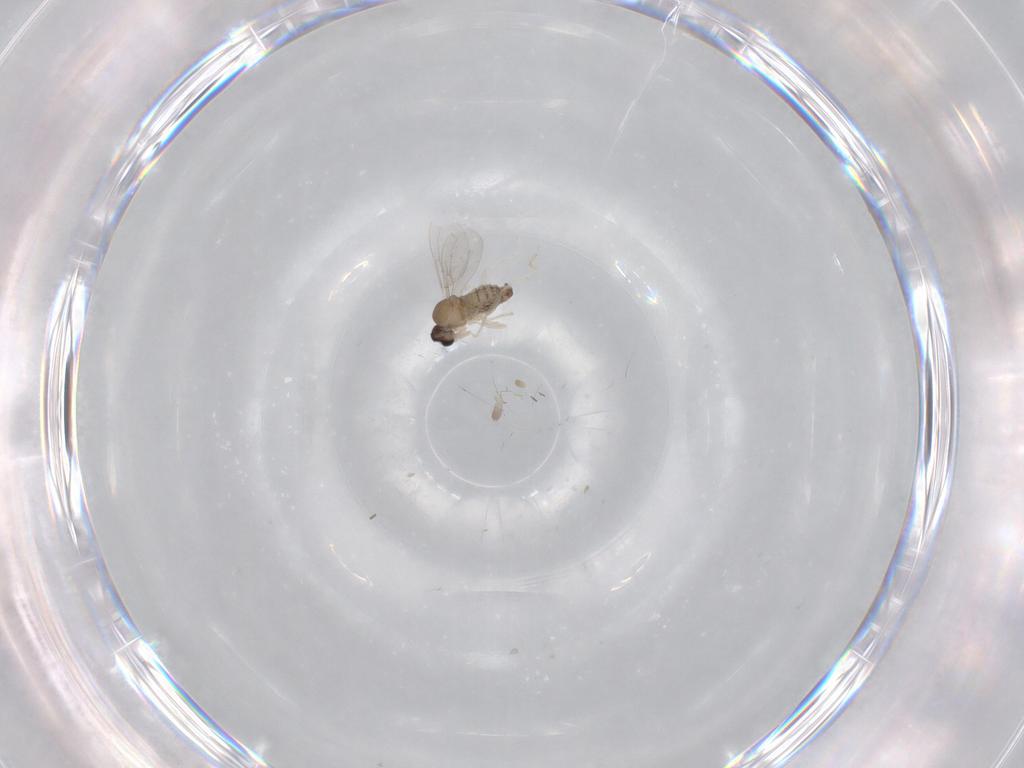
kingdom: Animalia
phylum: Arthropoda
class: Insecta
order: Diptera
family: Cecidomyiidae
